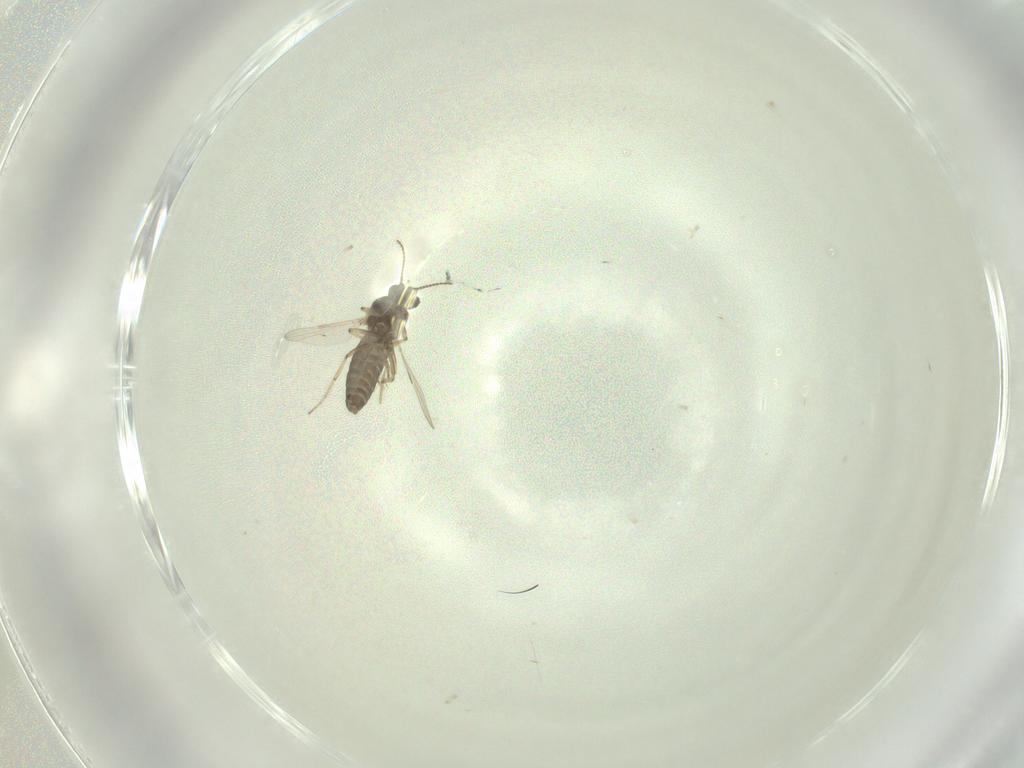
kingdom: Animalia
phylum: Arthropoda
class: Insecta
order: Diptera
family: Ceratopogonidae
